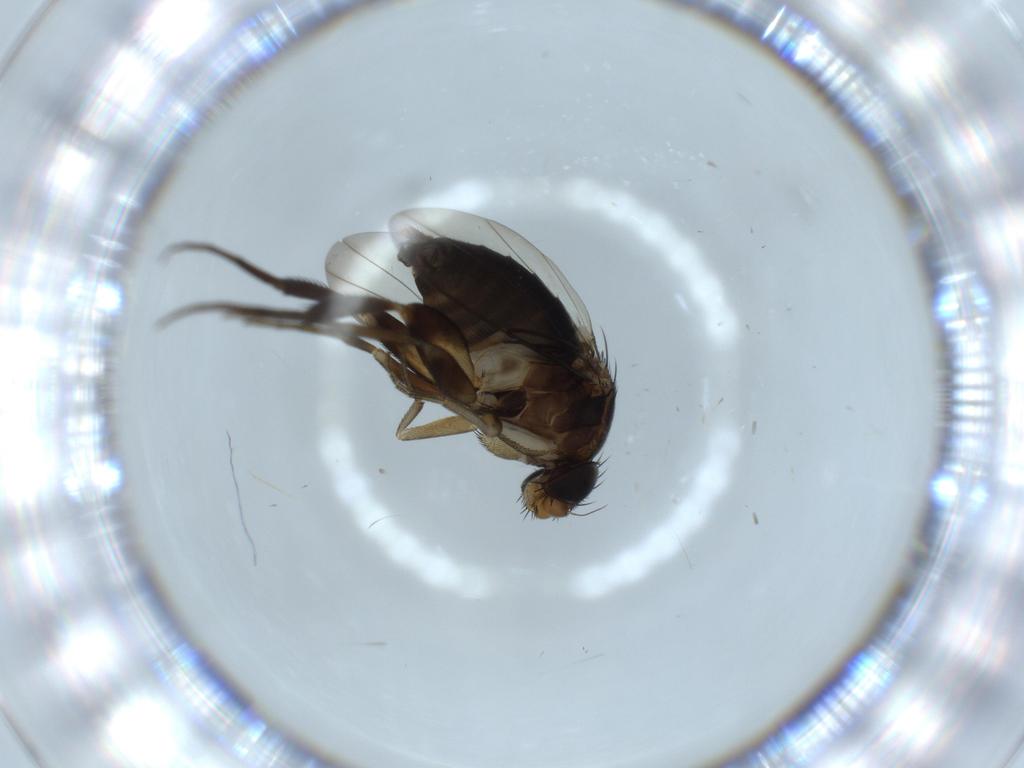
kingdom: Animalia
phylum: Arthropoda
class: Insecta
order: Diptera
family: Phoridae
